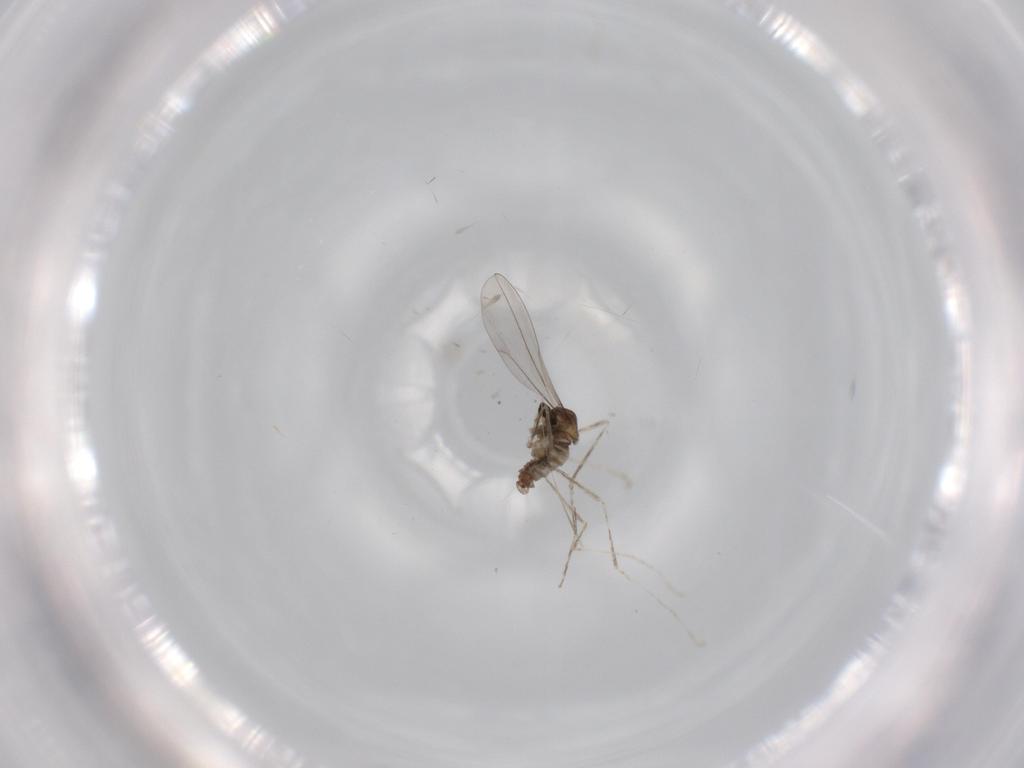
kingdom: Animalia
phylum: Arthropoda
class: Insecta
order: Diptera
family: Cecidomyiidae
